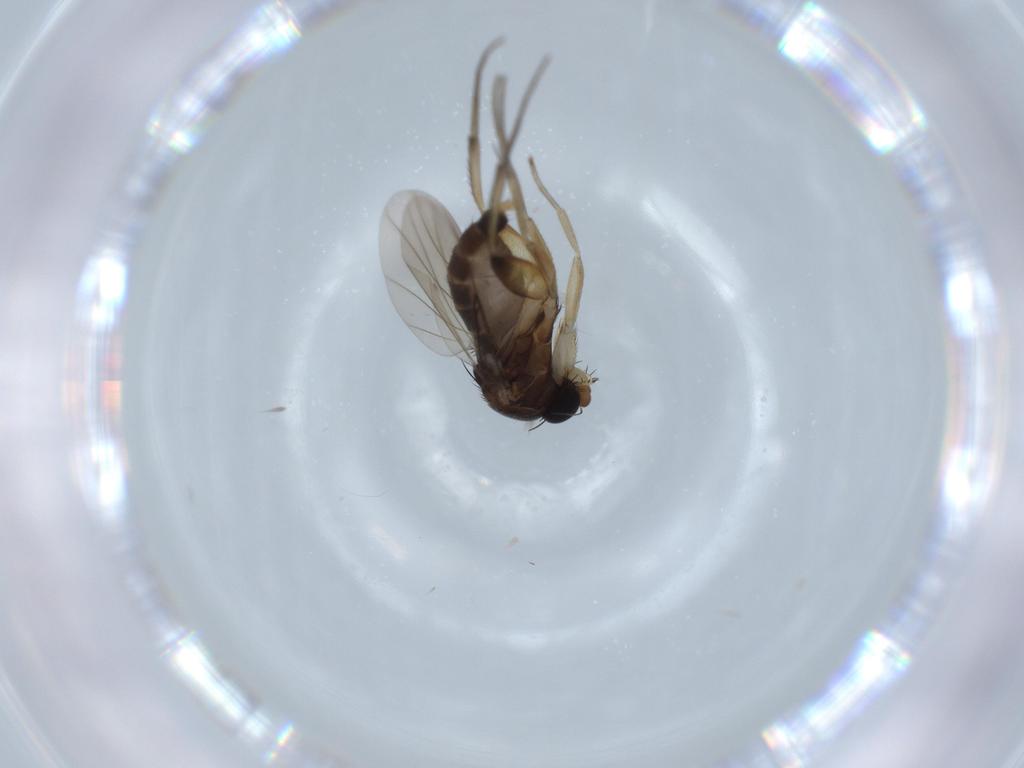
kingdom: Animalia
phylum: Arthropoda
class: Insecta
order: Diptera
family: Phoridae
